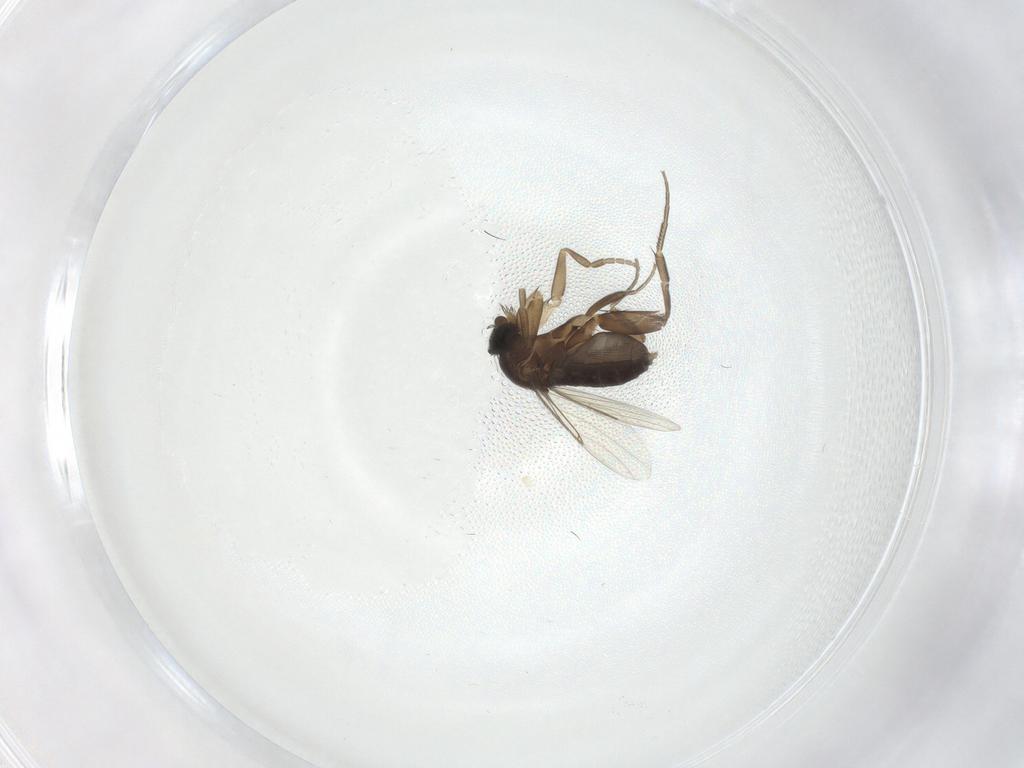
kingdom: Animalia
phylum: Arthropoda
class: Insecta
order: Diptera
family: Phoridae
